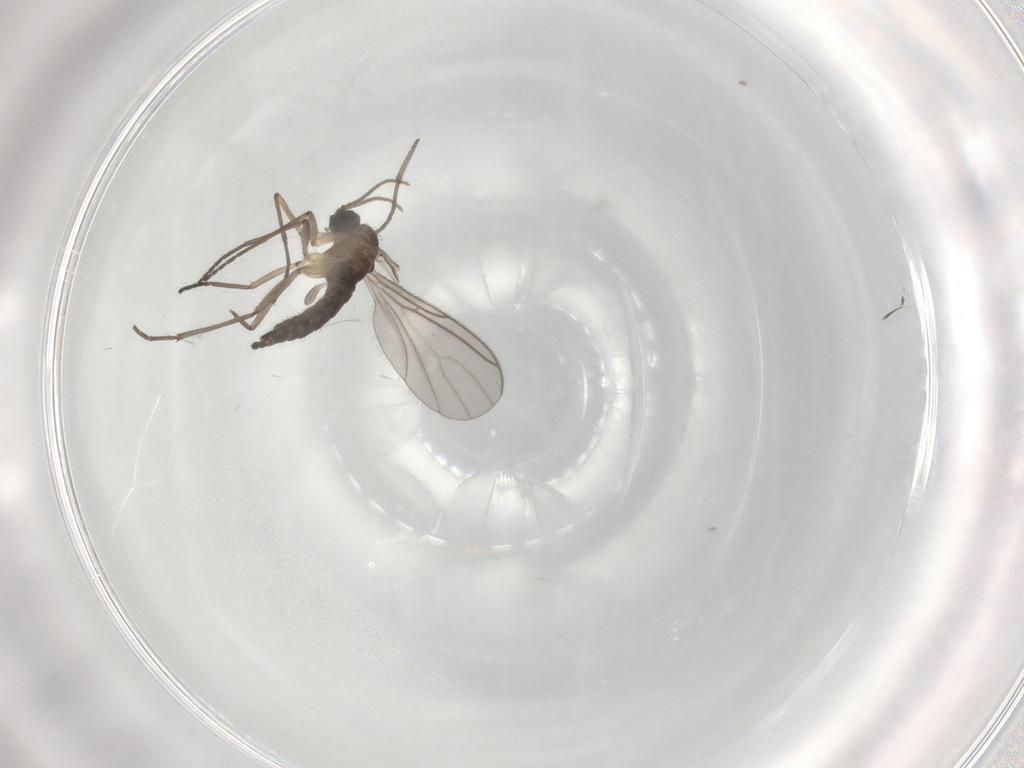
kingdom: Animalia
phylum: Arthropoda
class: Insecta
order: Diptera
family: Sciaridae
